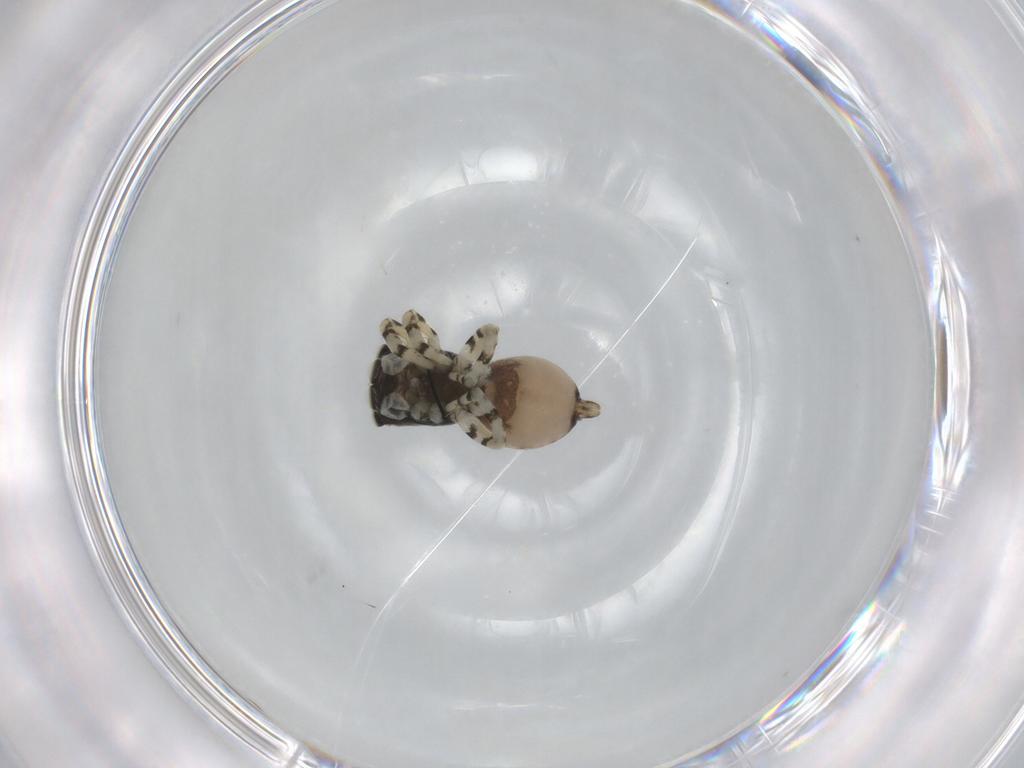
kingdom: Animalia
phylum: Arthropoda
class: Arachnida
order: Araneae
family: Salticidae
